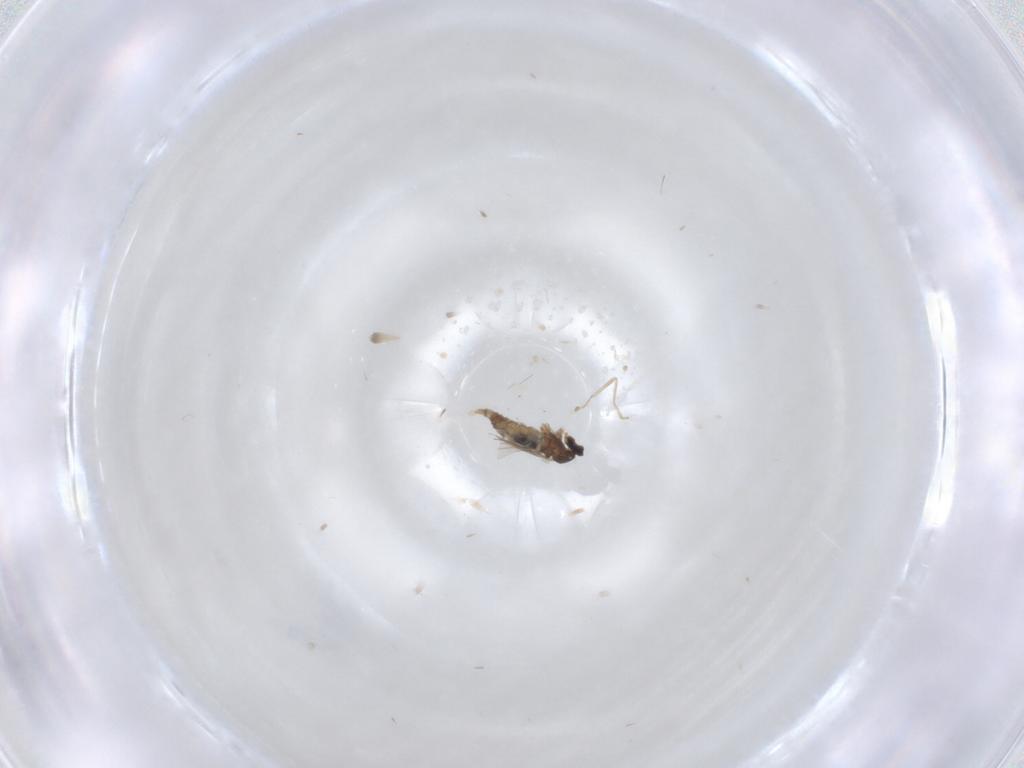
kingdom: Animalia
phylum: Arthropoda
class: Insecta
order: Diptera
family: Cecidomyiidae
